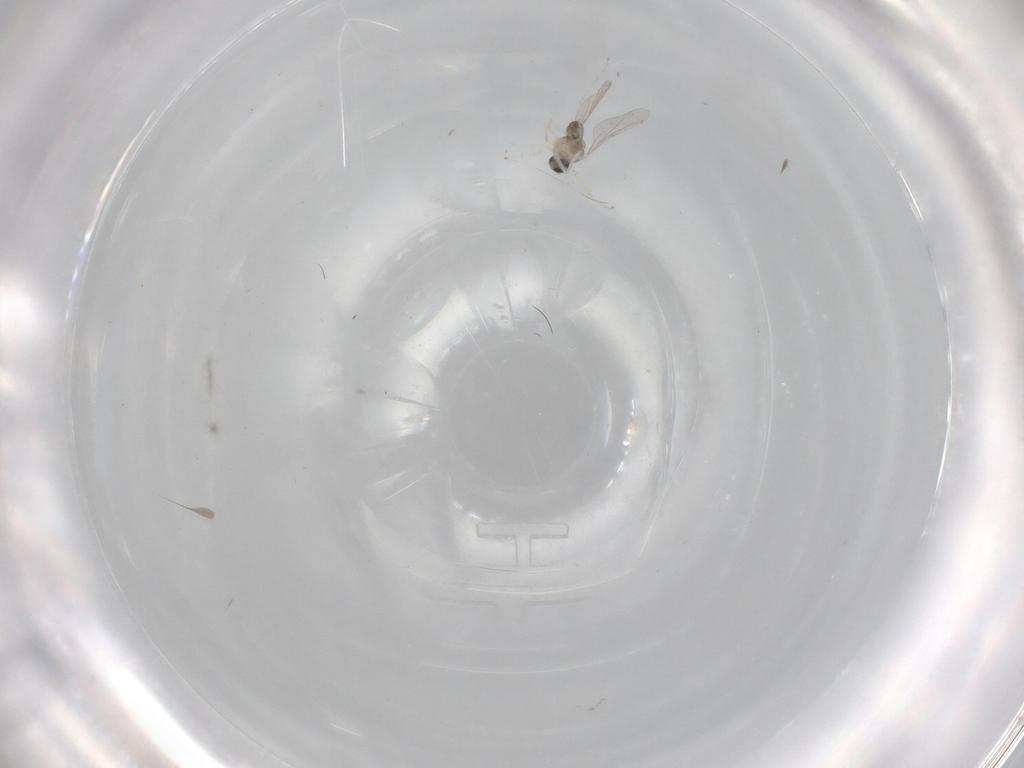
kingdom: Animalia
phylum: Arthropoda
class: Insecta
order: Diptera
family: Cecidomyiidae
